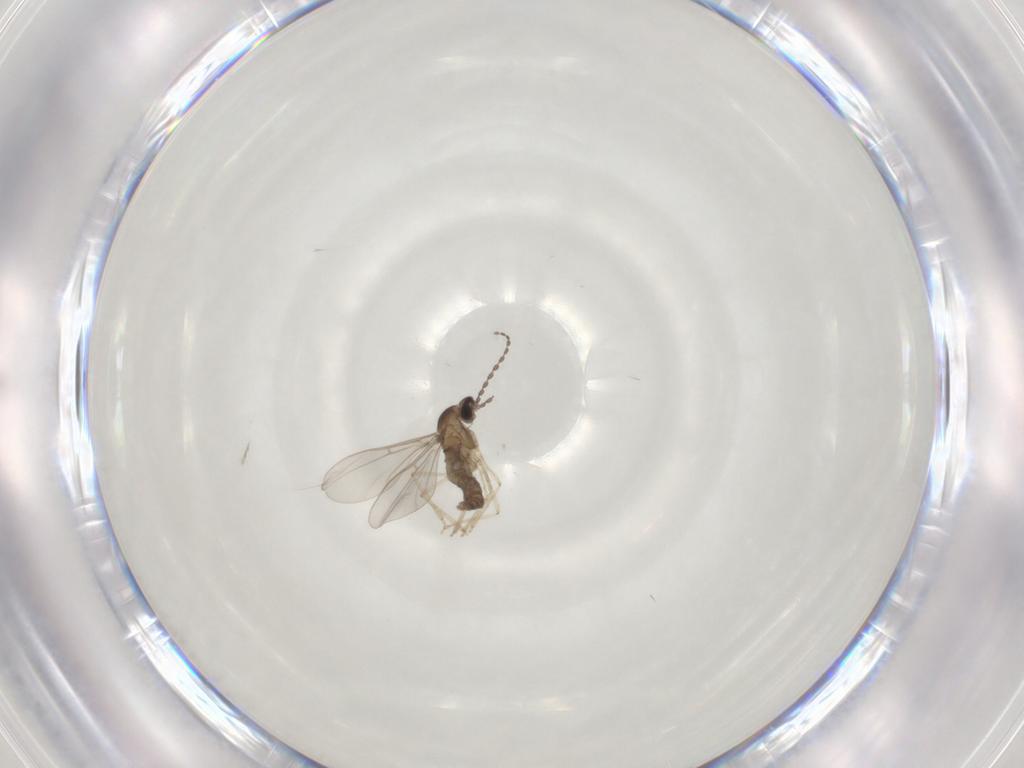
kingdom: Animalia
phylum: Arthropoda
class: Insecta
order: Diptera
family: Cecidomyiidae
